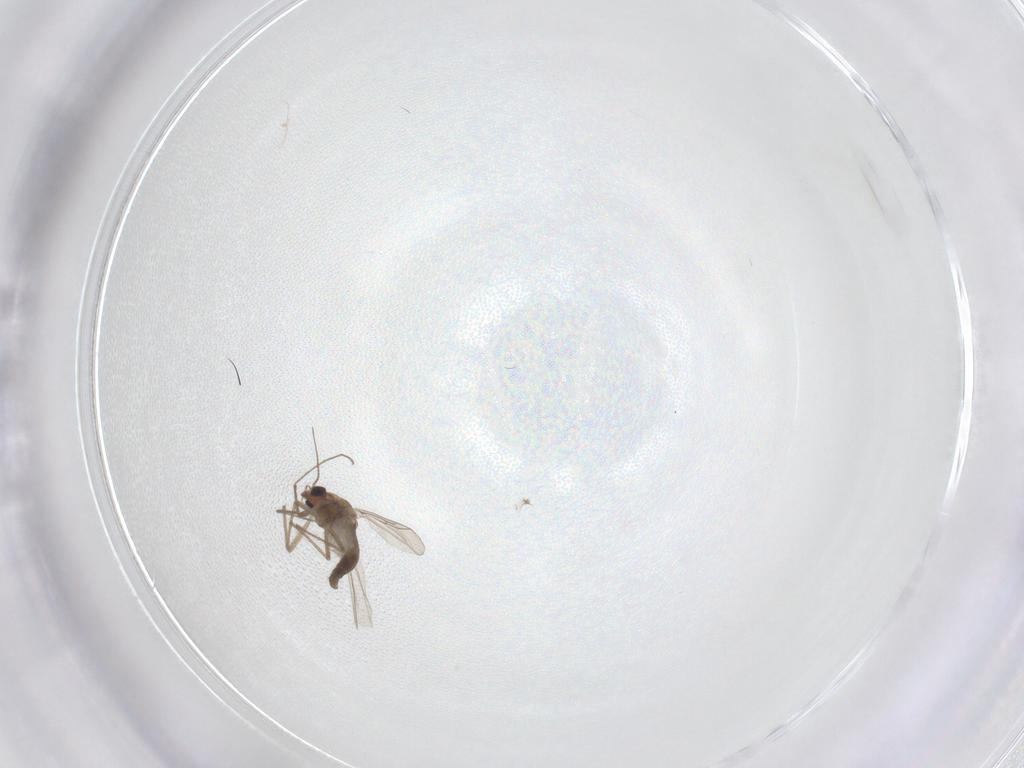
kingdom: Animalia
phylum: Arthropoda
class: Insecta
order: Diptera
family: Chironomidae
